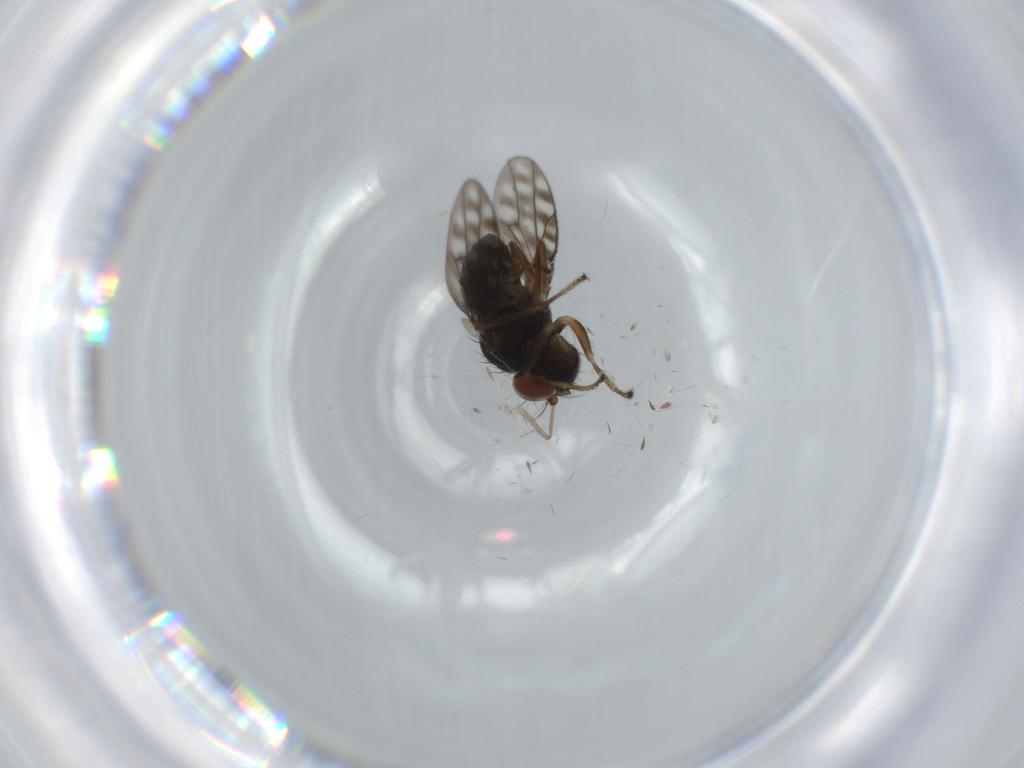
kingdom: Animalia
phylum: Arthropoda
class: Insecta
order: Diptera
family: Ephydridae
